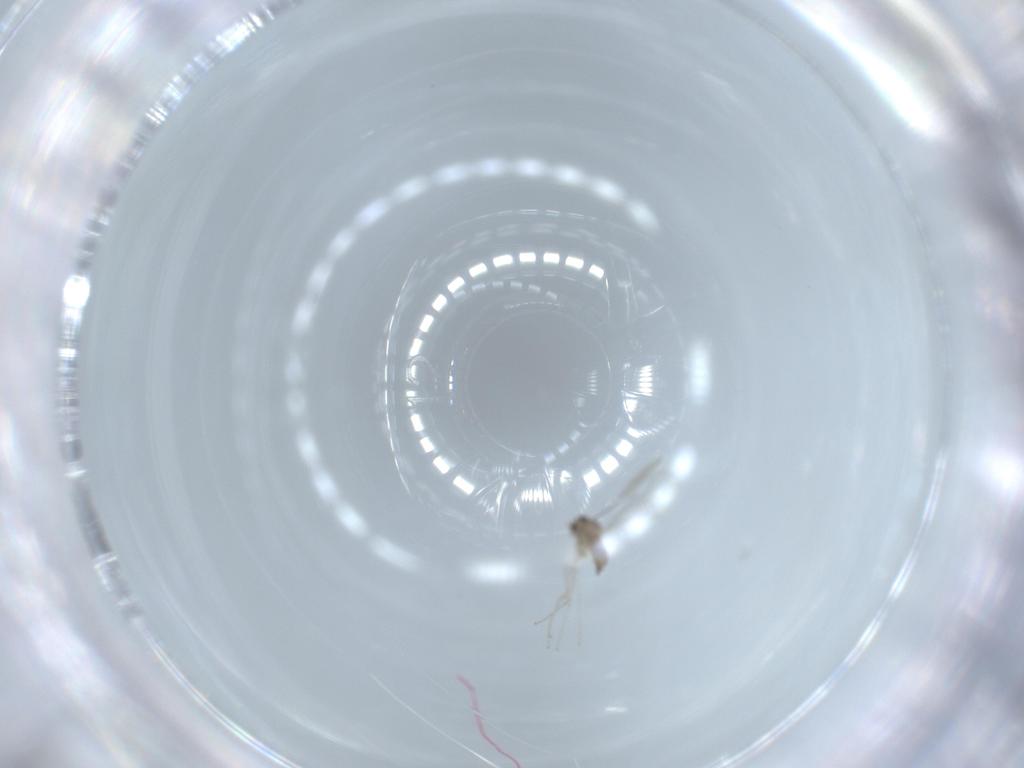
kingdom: Animalia
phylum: Arthropoda
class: Insecta
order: Diptera
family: Cecidomyiidae
